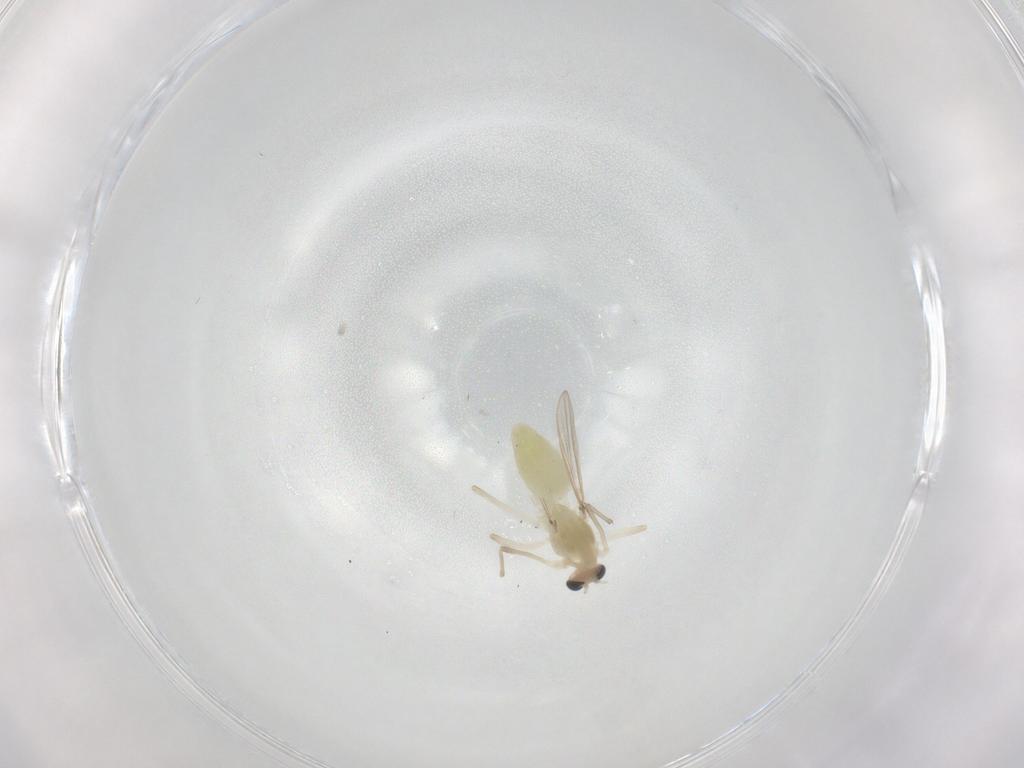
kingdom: Animalia
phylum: Arthropoda
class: Insecta
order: Diptera
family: Chironomidae
